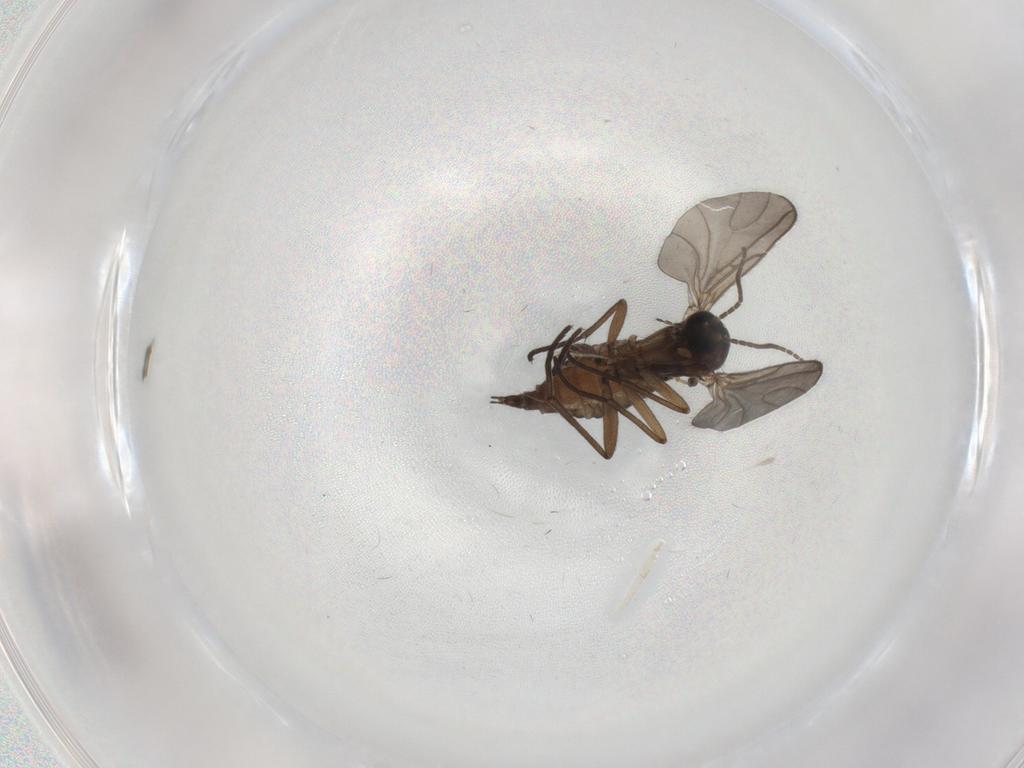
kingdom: Animalia
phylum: Arthropoda
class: Insecta
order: Diptera
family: Sciaridae
